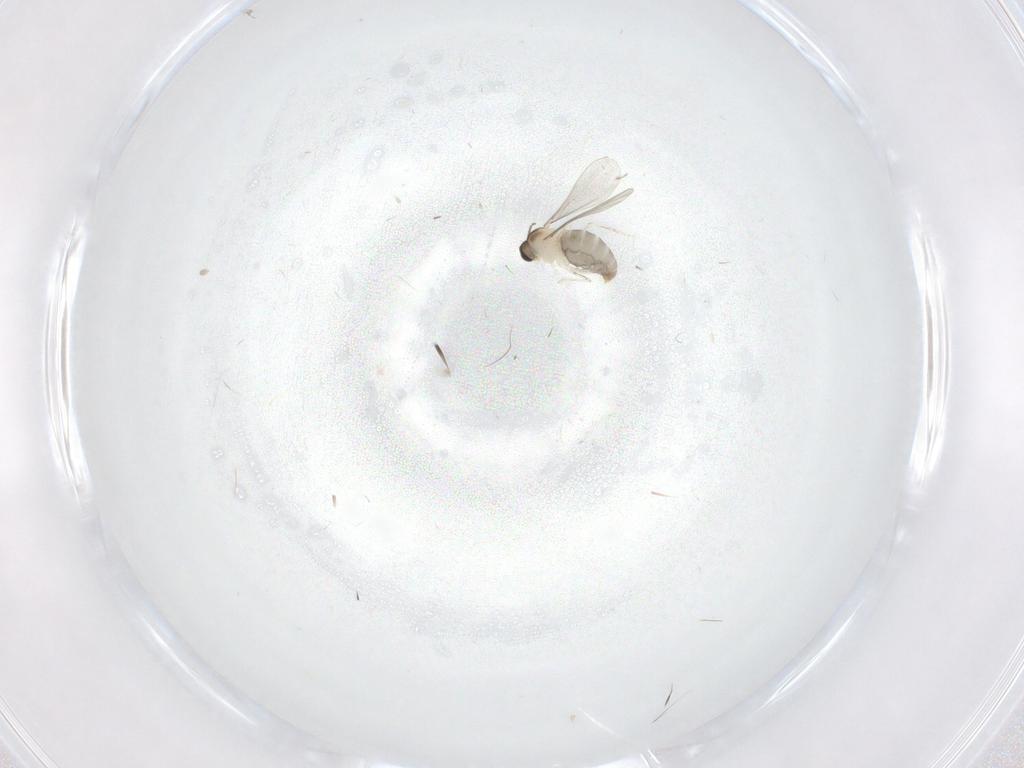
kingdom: Animalia
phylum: Arthropoda
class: Insecta
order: Diptera
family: Cecidomyiidae
